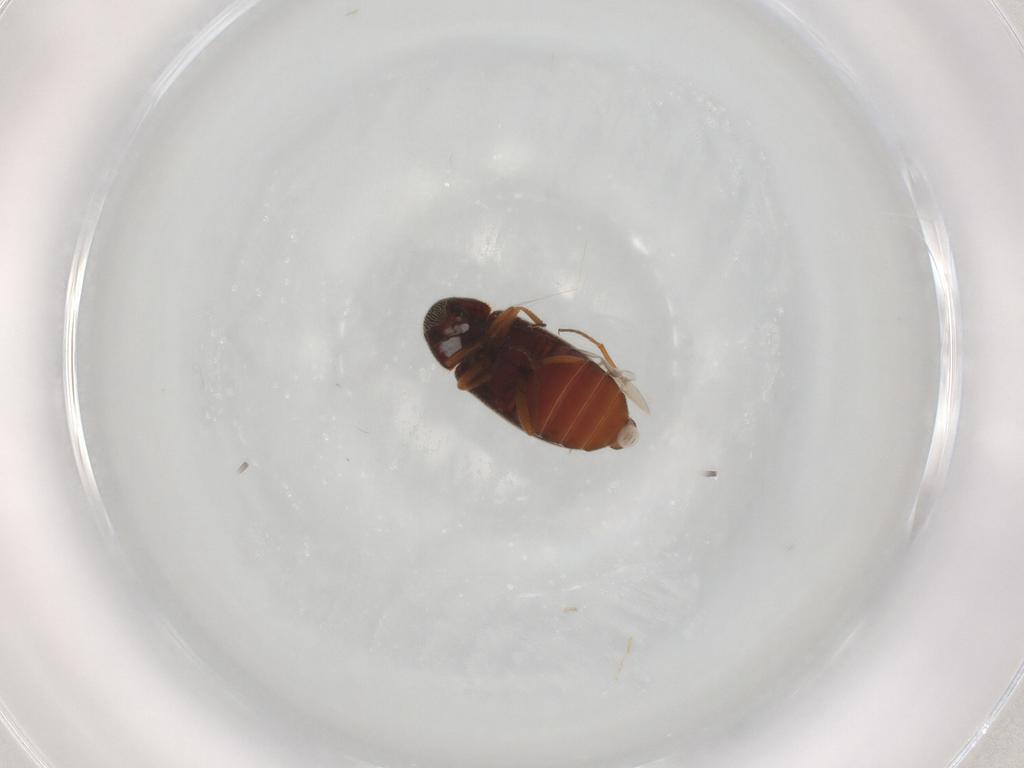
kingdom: Animalia
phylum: Arthropoda
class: Insecta
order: Coleoptera
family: Rhadalidae
